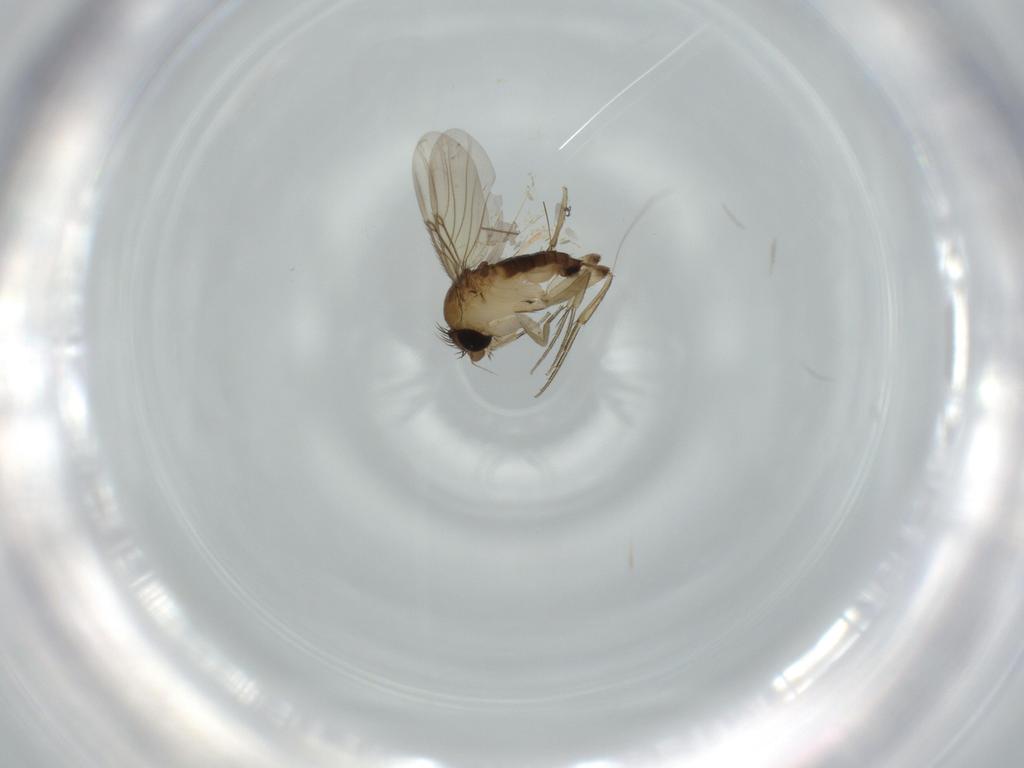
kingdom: Animalia
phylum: Arthropoda
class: Insecta
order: Diptera
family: Phoridae
